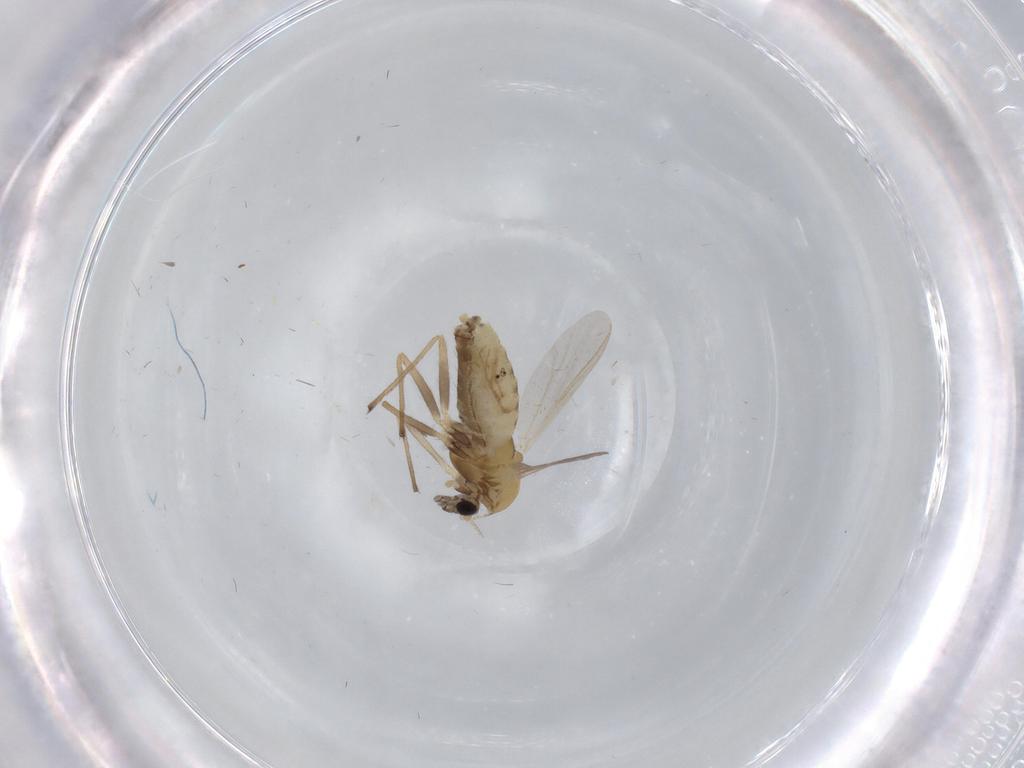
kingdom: Animalia
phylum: Arthropoda
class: Insecta
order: Diptera
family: Chironomidae
